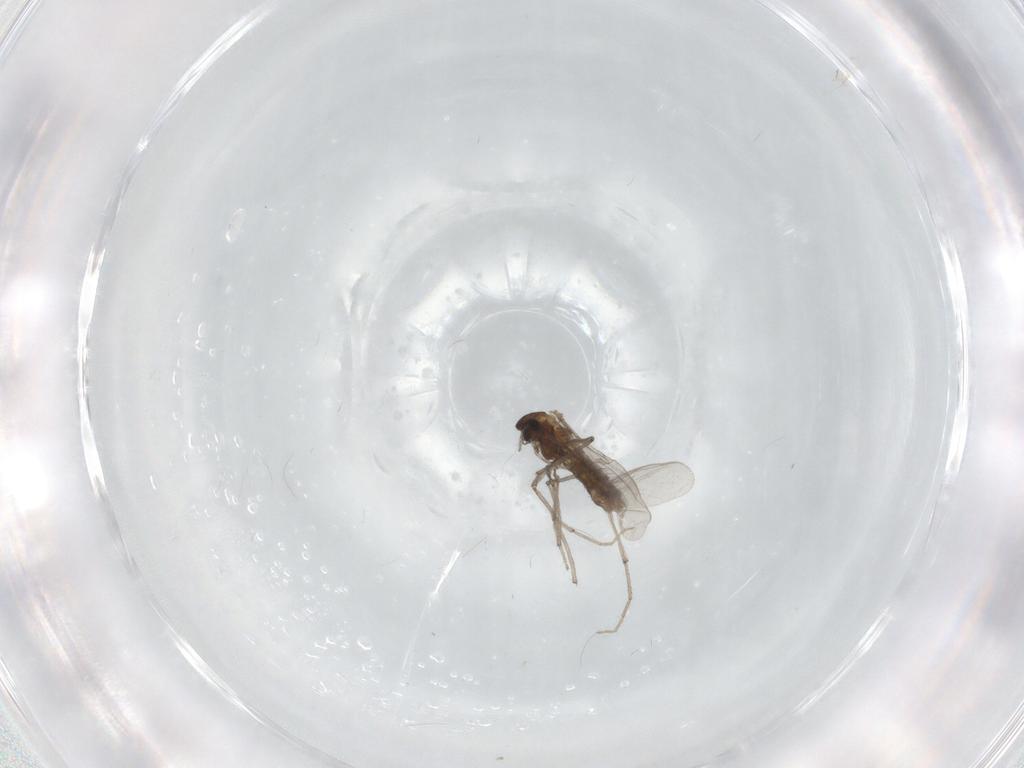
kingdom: Animalia
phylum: Arthropoda
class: Insecta
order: Diptera
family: Chironomidae
